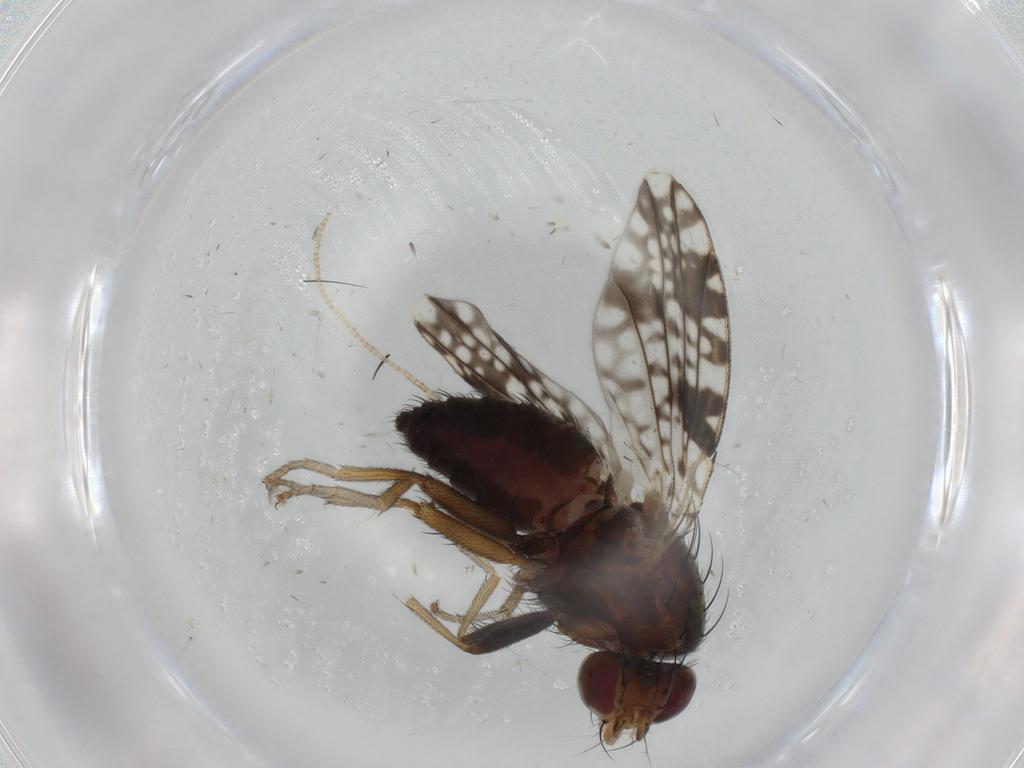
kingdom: Animalia
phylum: Arthropoda
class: Insecta
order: Diptera
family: Tephritidae
